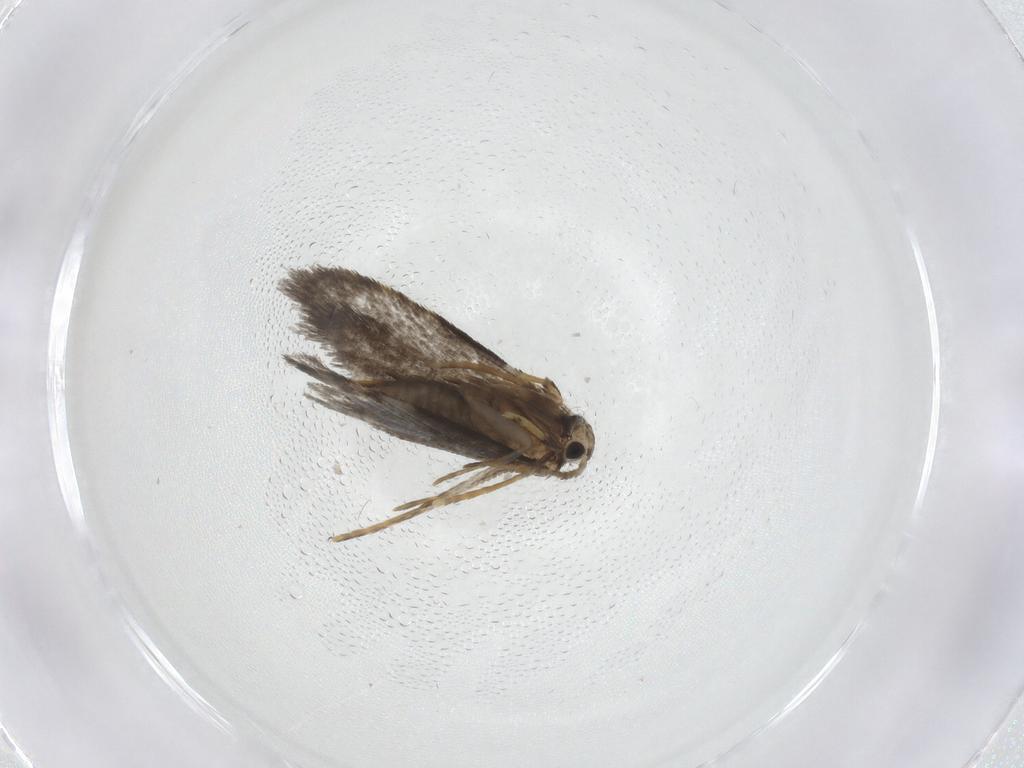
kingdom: Animalia
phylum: Arthropoda
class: Insecta
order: Lepidoptera
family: Psychidae
